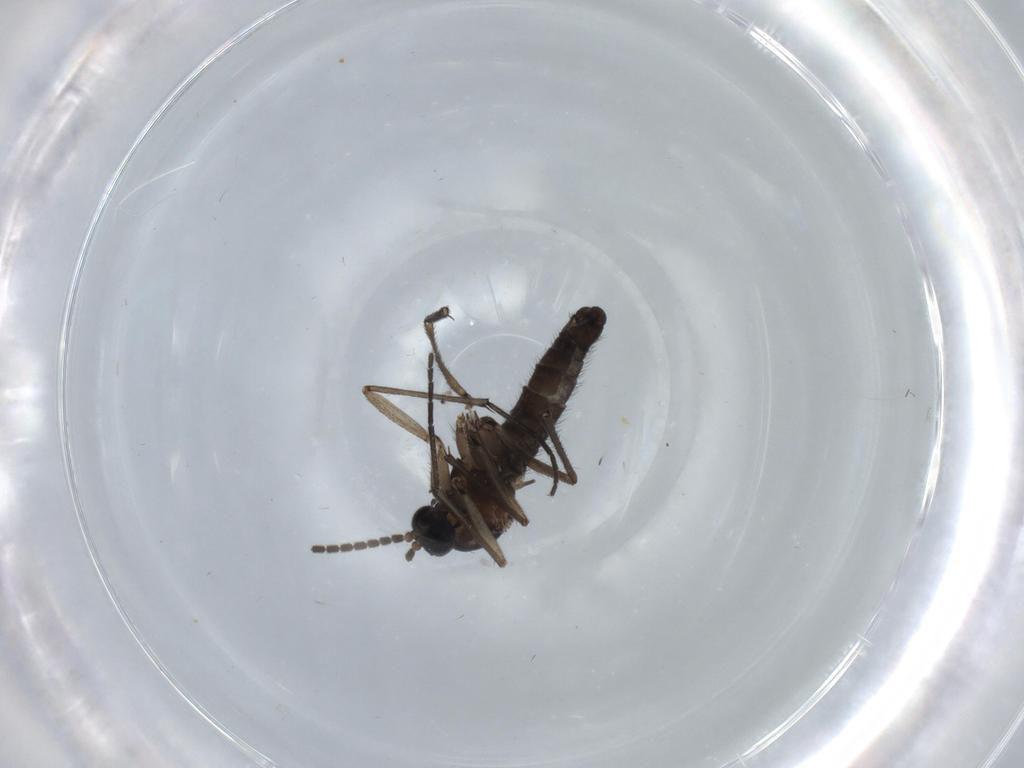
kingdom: Animalia
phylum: Arthropoda
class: Insecta
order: Diptera
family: Sciaridae
